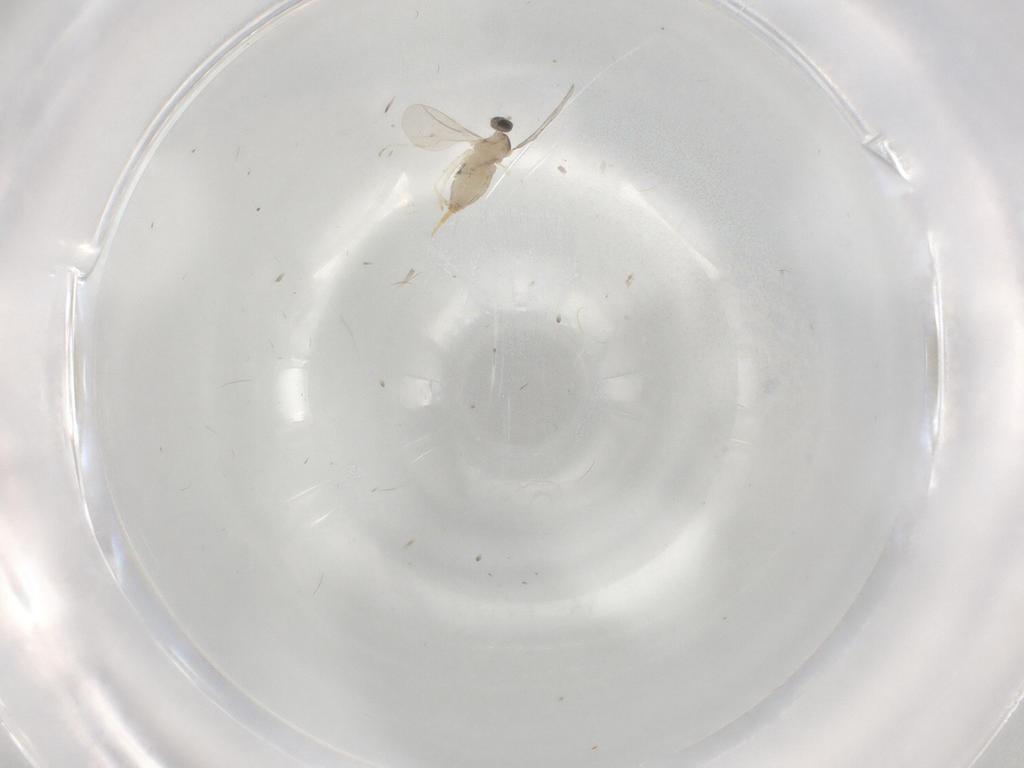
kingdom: Animalia
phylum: Arthropoda
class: Insecta
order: Diptera
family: Cecidomyiidae
